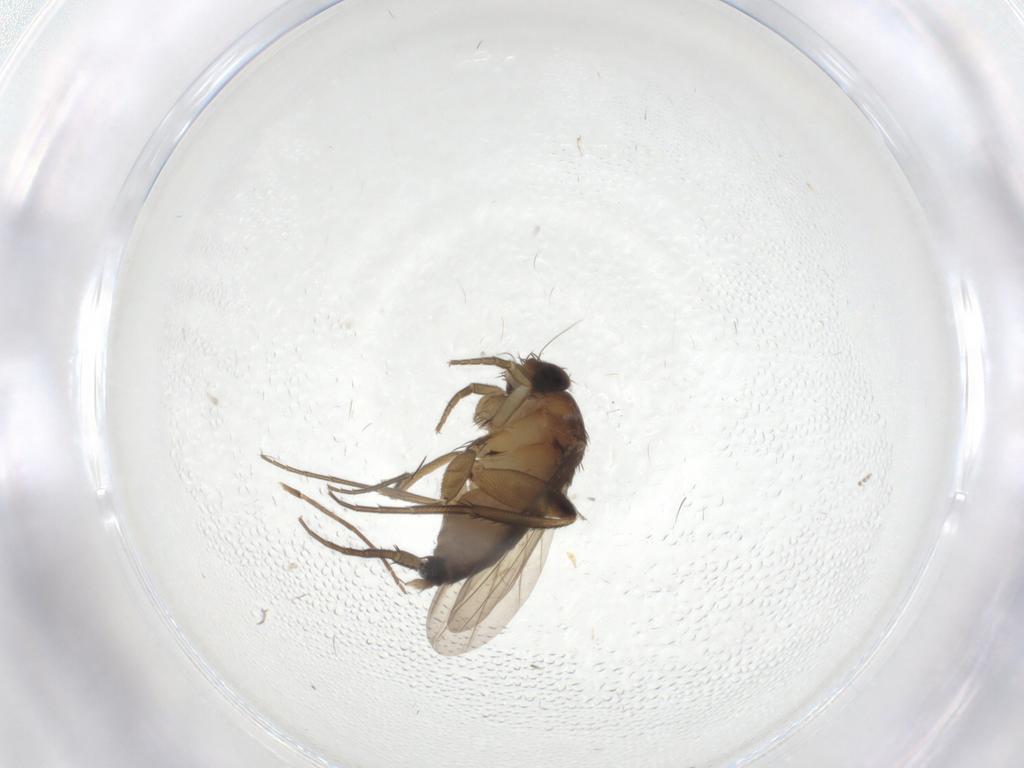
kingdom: Animalia
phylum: Arthropoda
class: Insecta
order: Diptera
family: Phoridae
